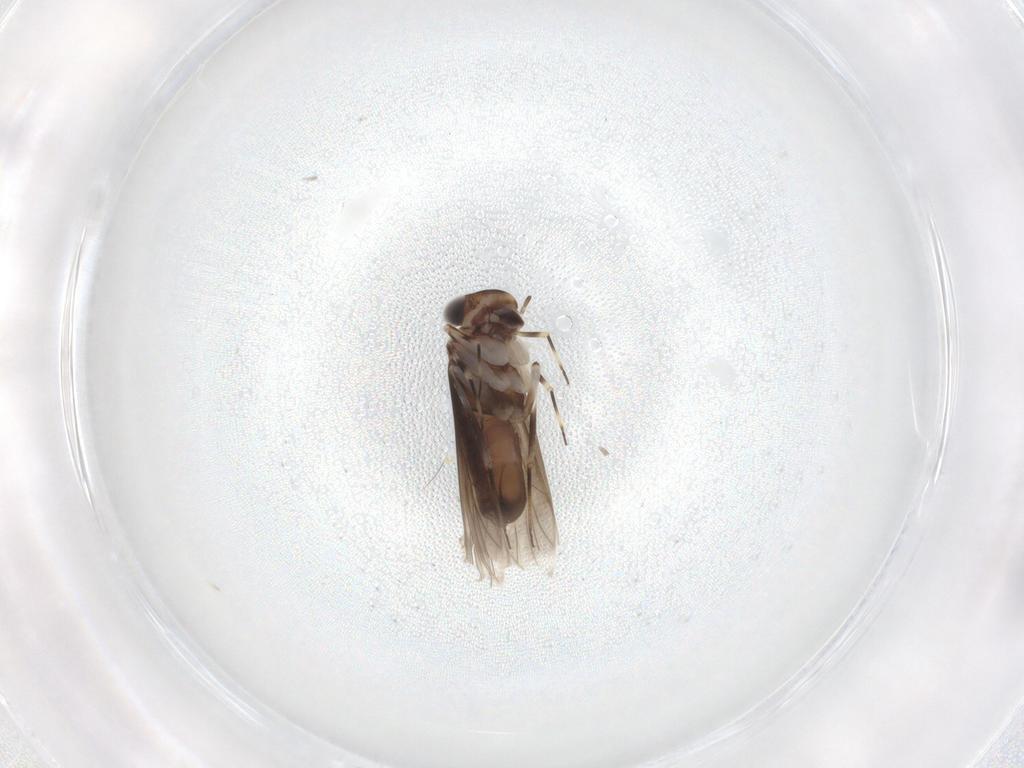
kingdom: Animalia
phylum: Arthropoda
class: Insecta
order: Psocodea
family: Amphientomidae
